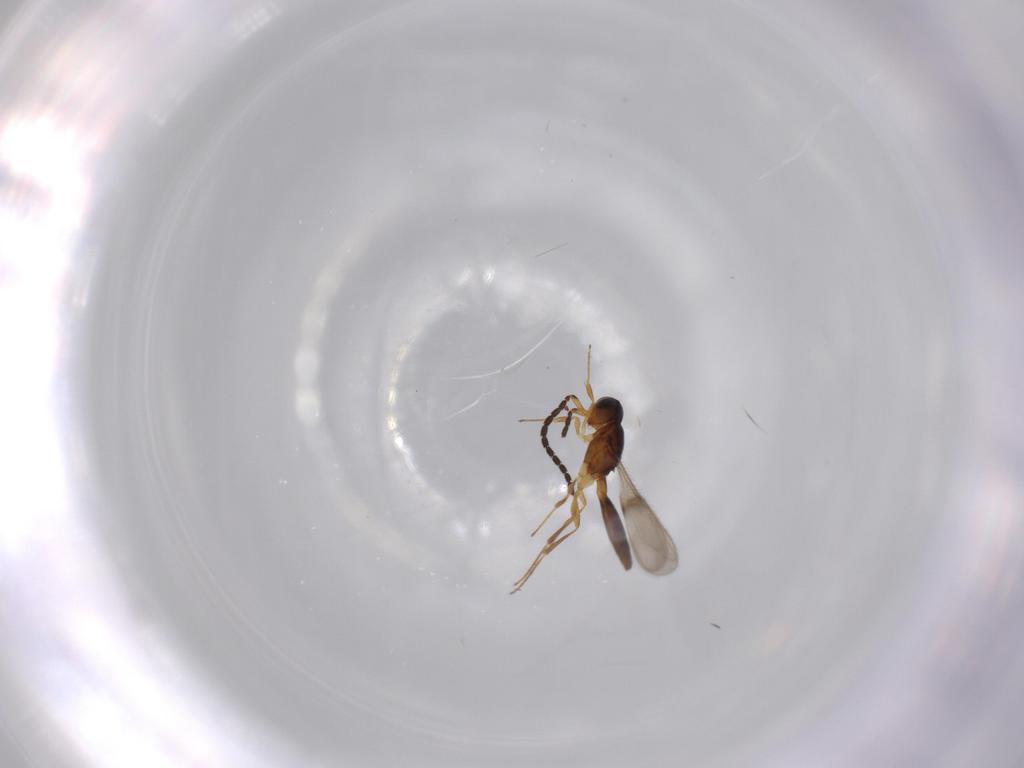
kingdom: Animalia
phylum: Arthropoda
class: Insecta
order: Hymenoptera
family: Scelionidae
